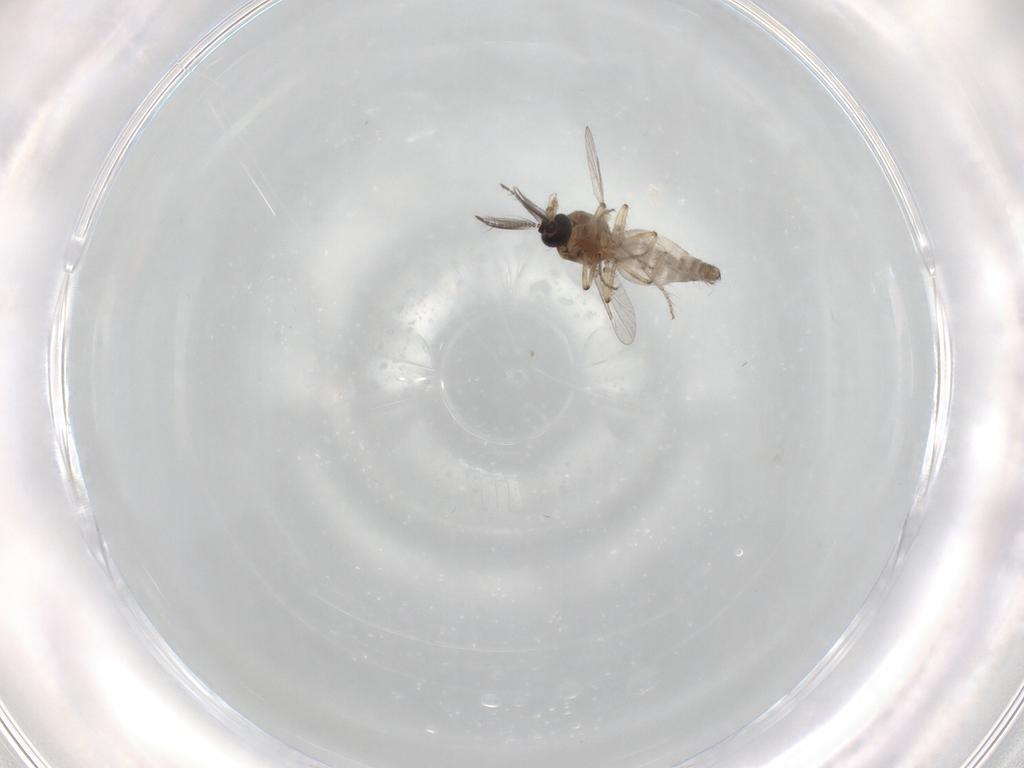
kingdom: Animalia
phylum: Arthropoda
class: Insecta
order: Diptera
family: Ceratopogonidae
